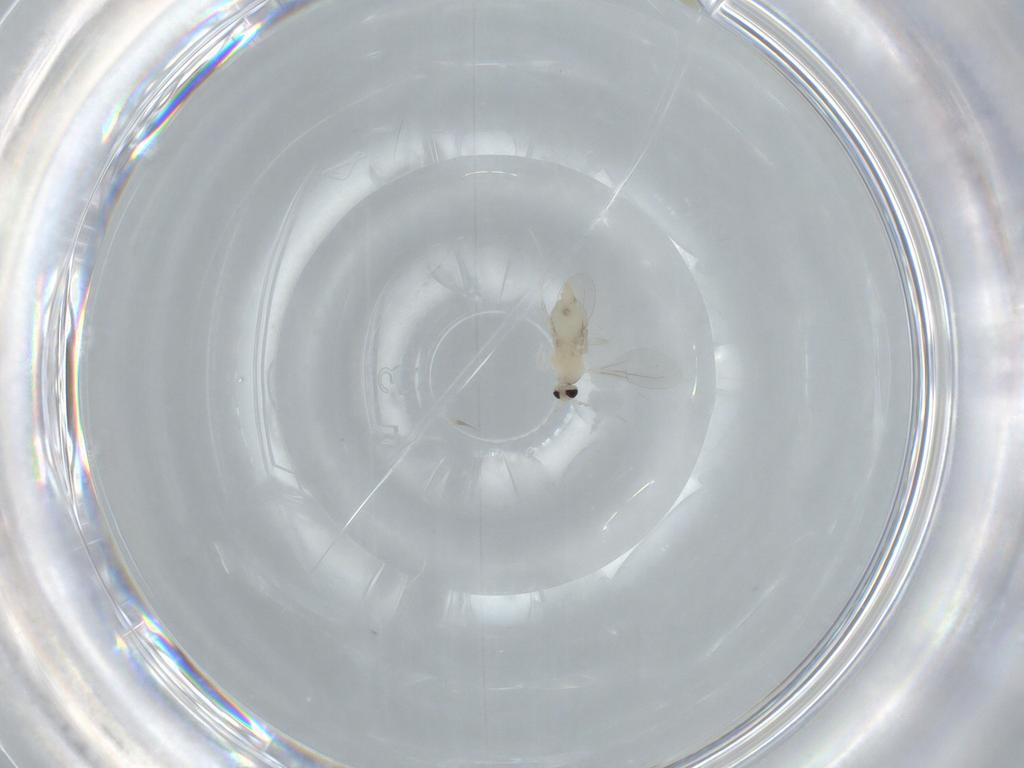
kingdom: Animalia
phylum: Arthropoda
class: Insecta
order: Diptera
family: Cecidomyiidae
